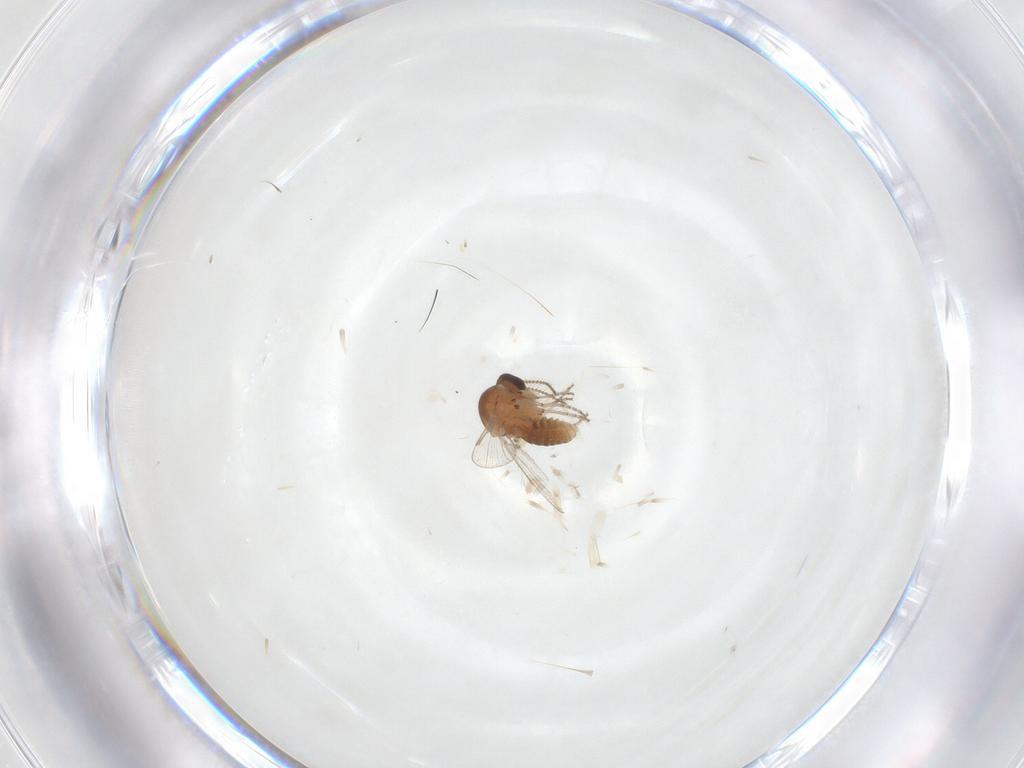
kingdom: Animalia
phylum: Arthropoda
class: Insecta
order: Diptera
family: Ceratopogonidae
